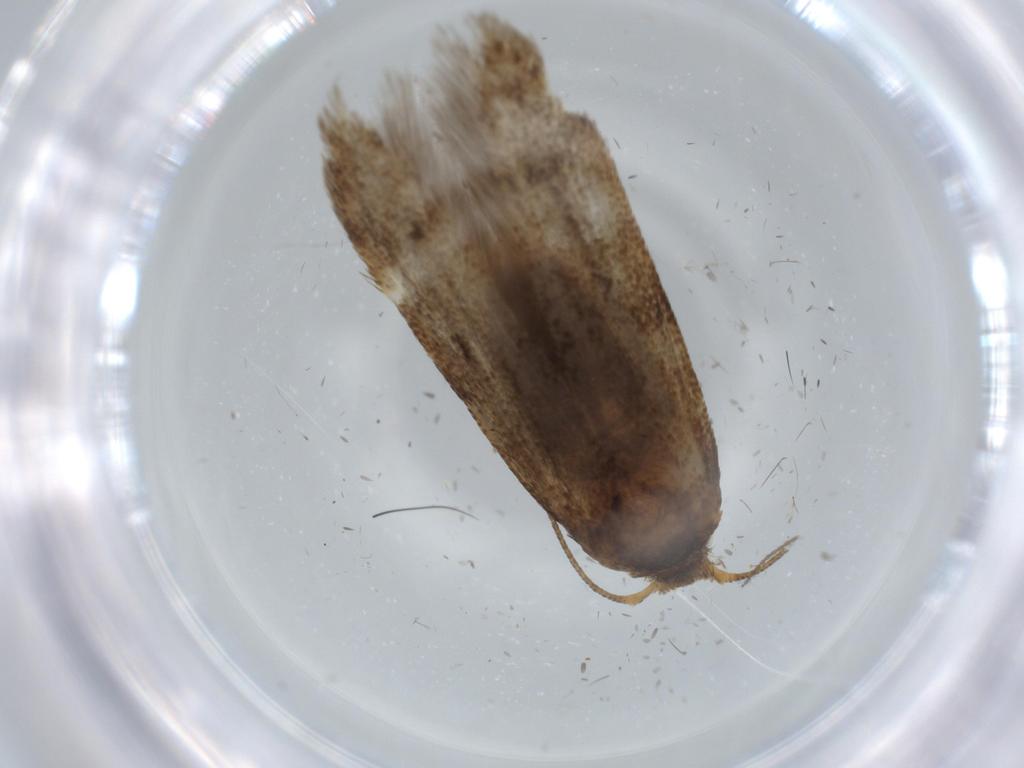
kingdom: Animalia
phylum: Arthropoda
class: Insecta
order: Lepidoptera
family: Coleophoridae
